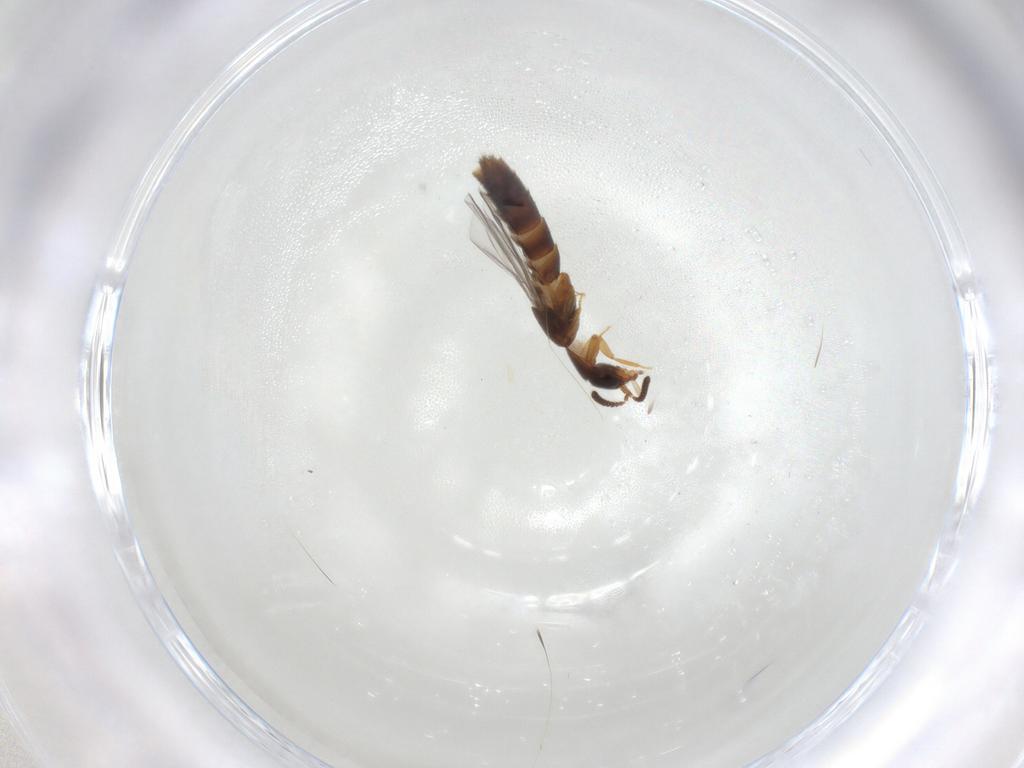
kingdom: Animalia
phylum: Arthropoda
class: Insecta
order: Coleoptera
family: Staphylinidae
